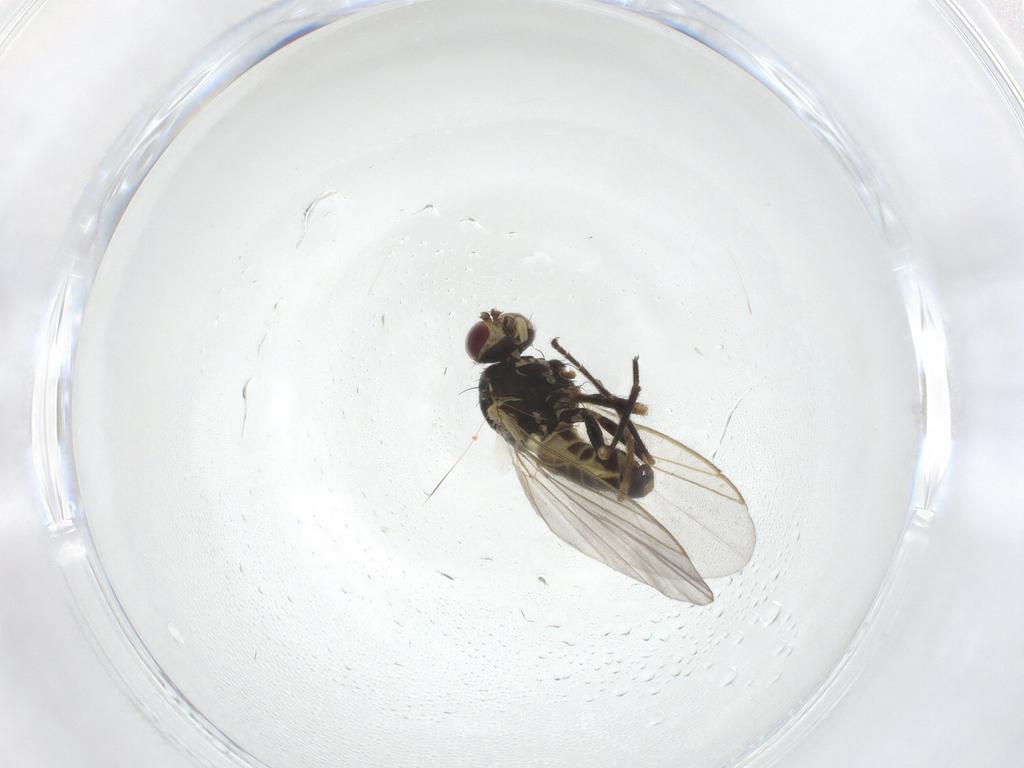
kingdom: Animalia
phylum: Arthropoda
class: Insecta
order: Diptera
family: Limoniidae
